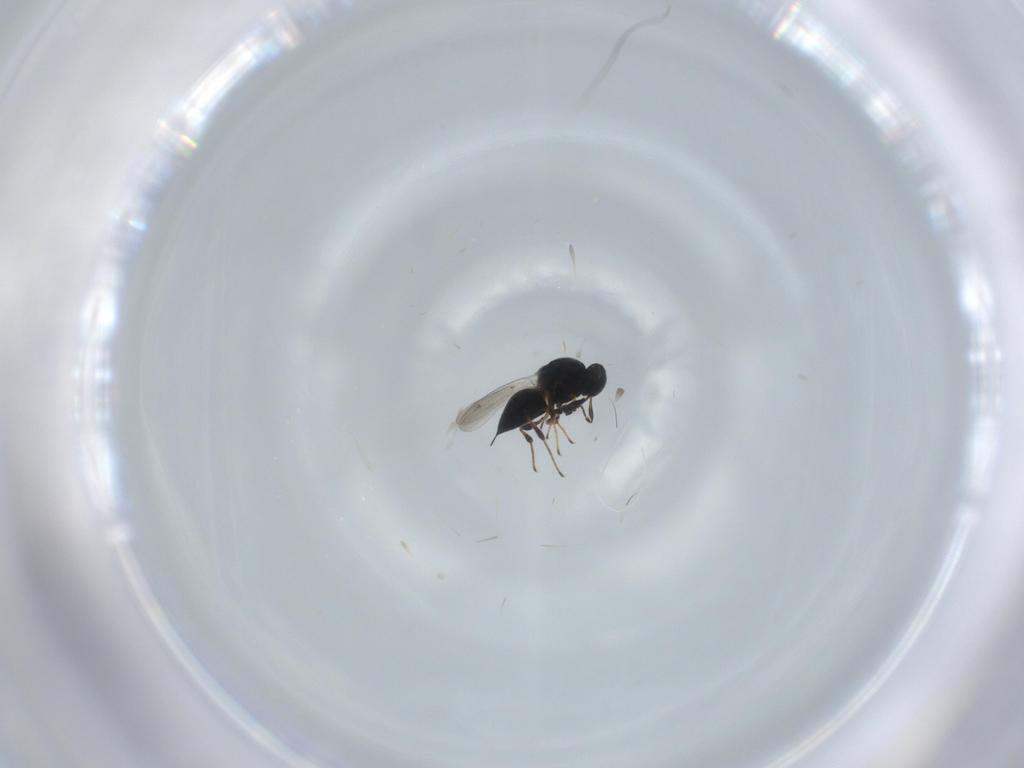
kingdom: Animalia
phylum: Arthropoda
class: Insecta
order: Hymenoptera
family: Platygastridae
